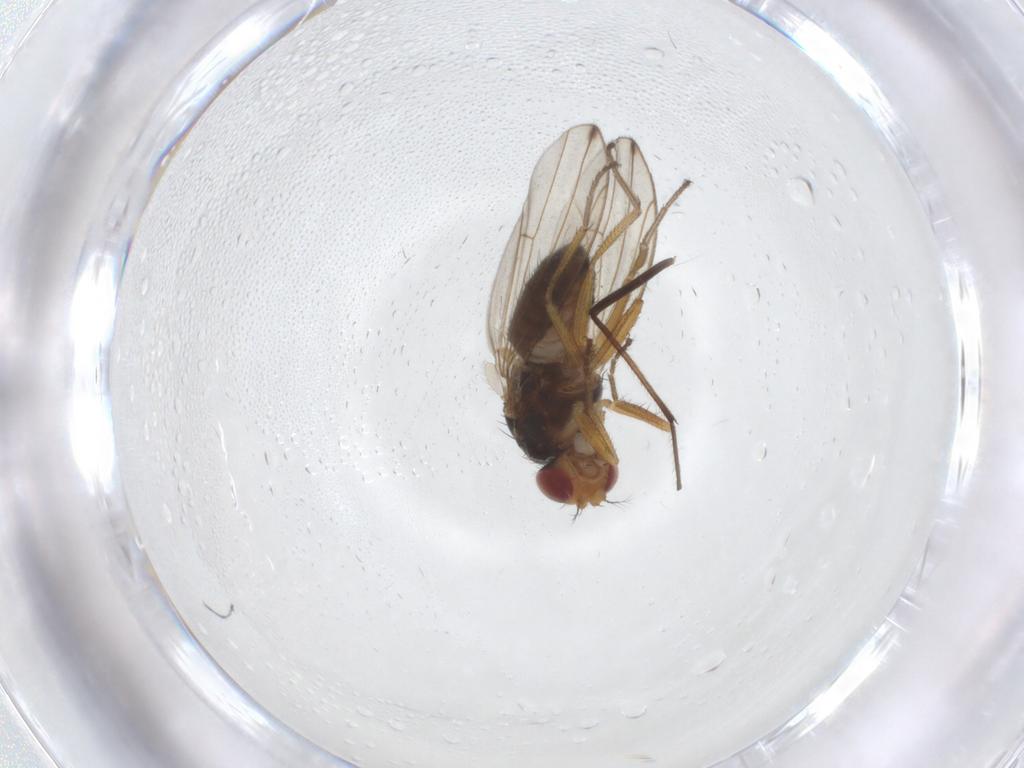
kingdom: Animalia
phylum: Arthropoda
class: Insecta
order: Diptera
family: Drosophilidae
